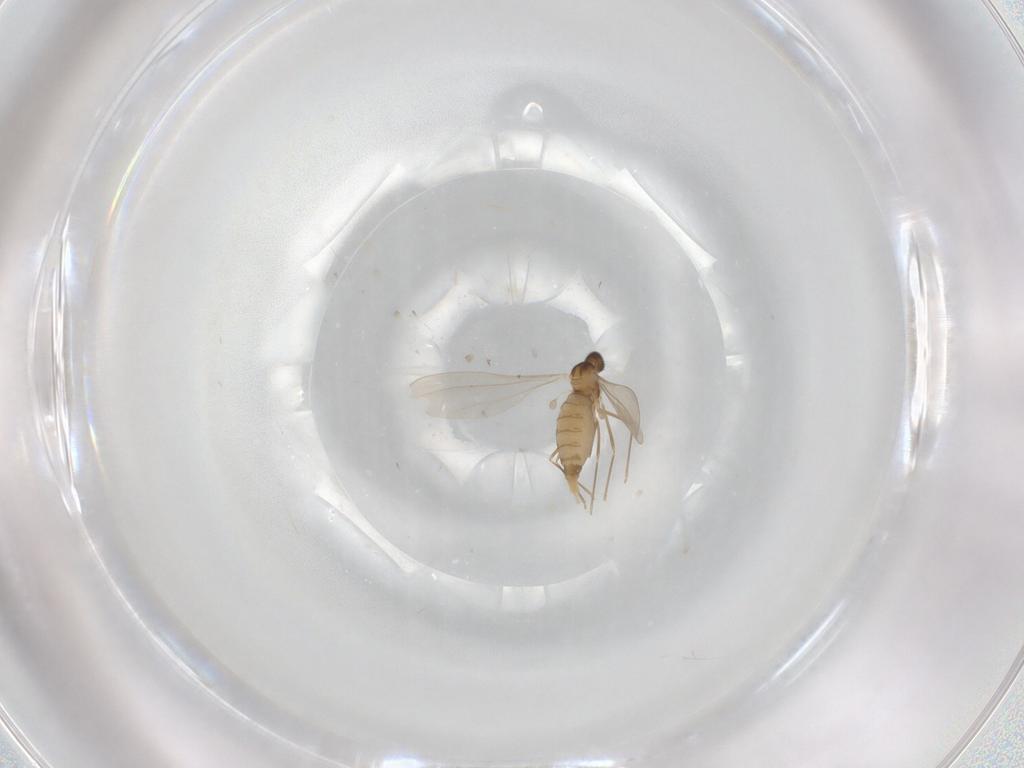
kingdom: Animalia
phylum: Arthropoda
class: Insecta
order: Diptera
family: Cecidomyiidae
